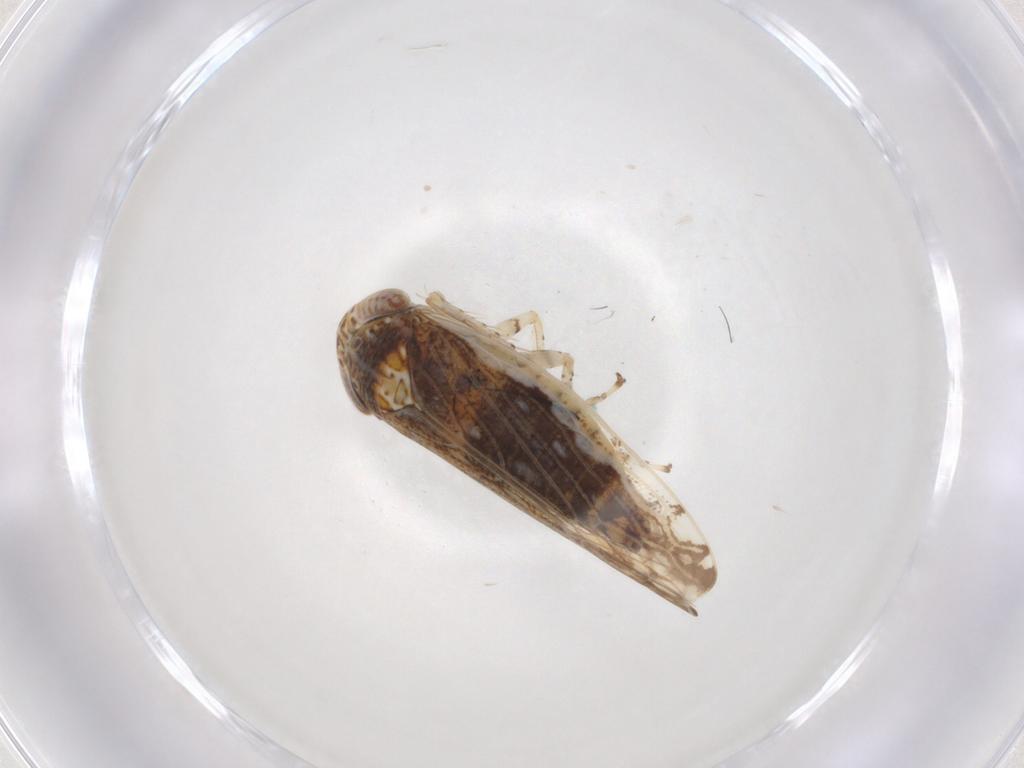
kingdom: Animalia
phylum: Arthropoda
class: Insecta
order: Hemiptera
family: Cicadellidae
